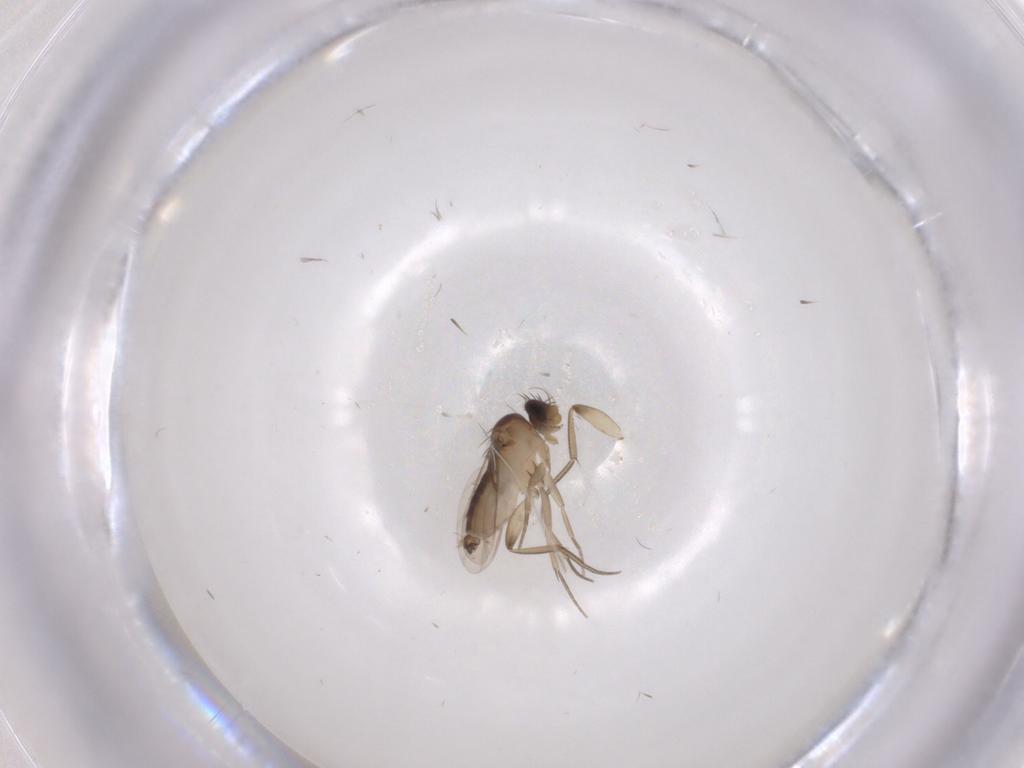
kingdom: Animalia
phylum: Arthropoda
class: Insecta
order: Diptera
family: Phoridae
